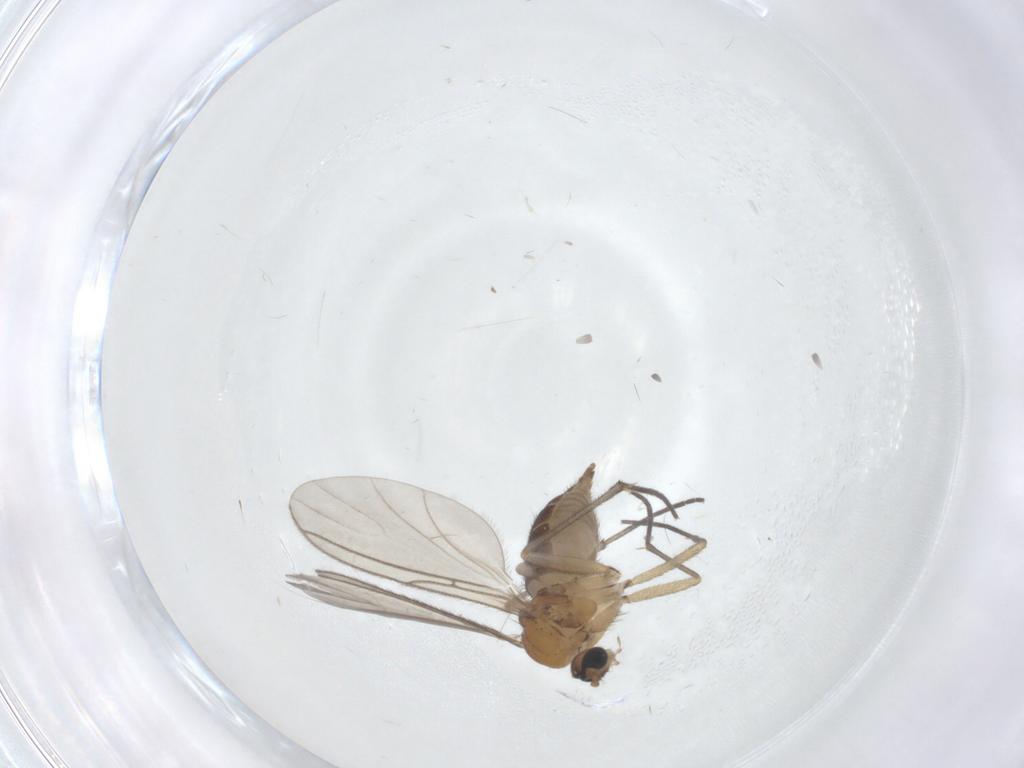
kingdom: Animalia
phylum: Arthropoda
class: Insecta
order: Diptera
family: Sciaridae
